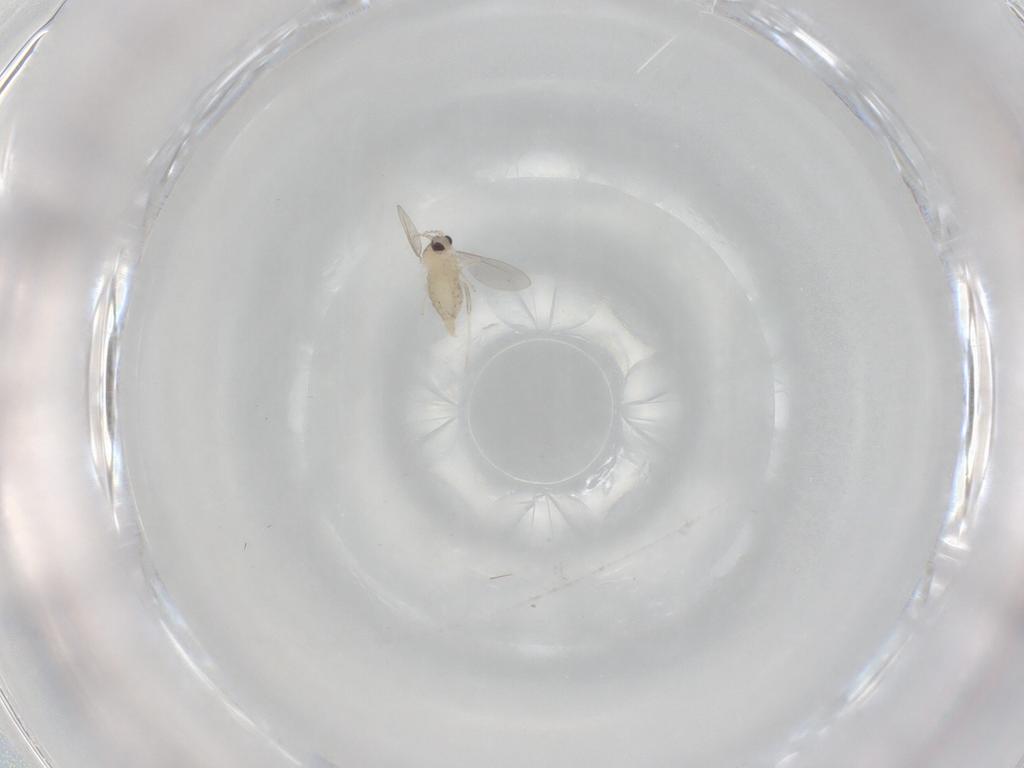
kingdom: Animalia
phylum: Arthropoda
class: Insecta
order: Diptera
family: Cecidomyiidae
